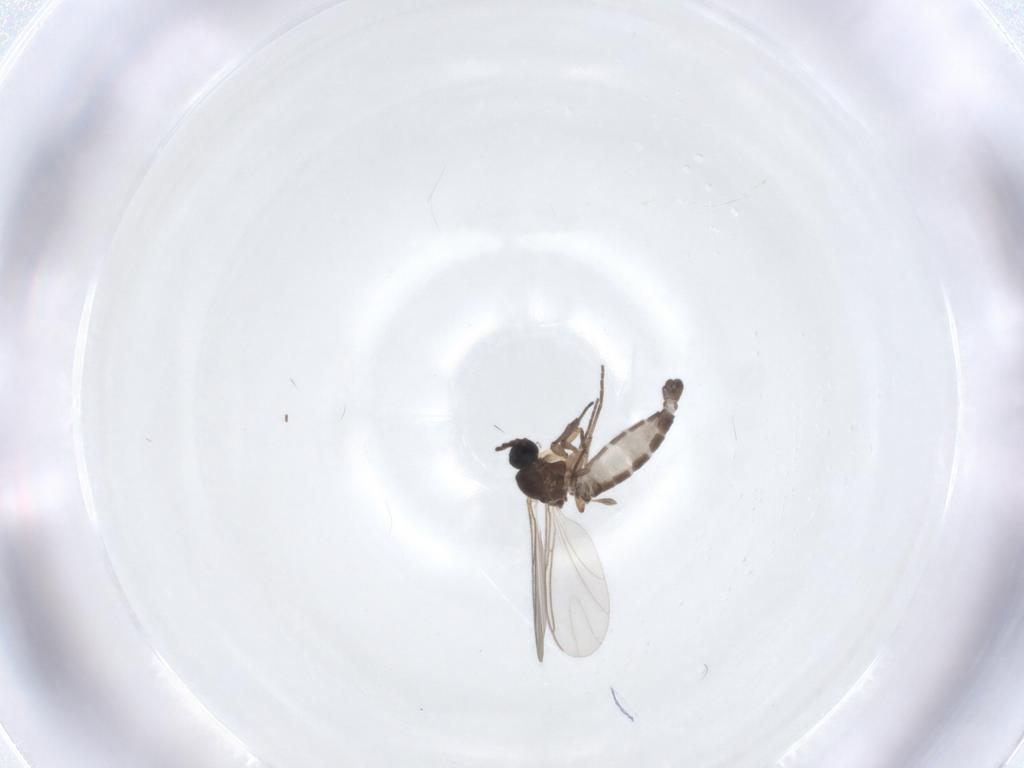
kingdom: Animalia
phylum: Arthropoda
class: Insecta
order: Diptera
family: Sciaridae
